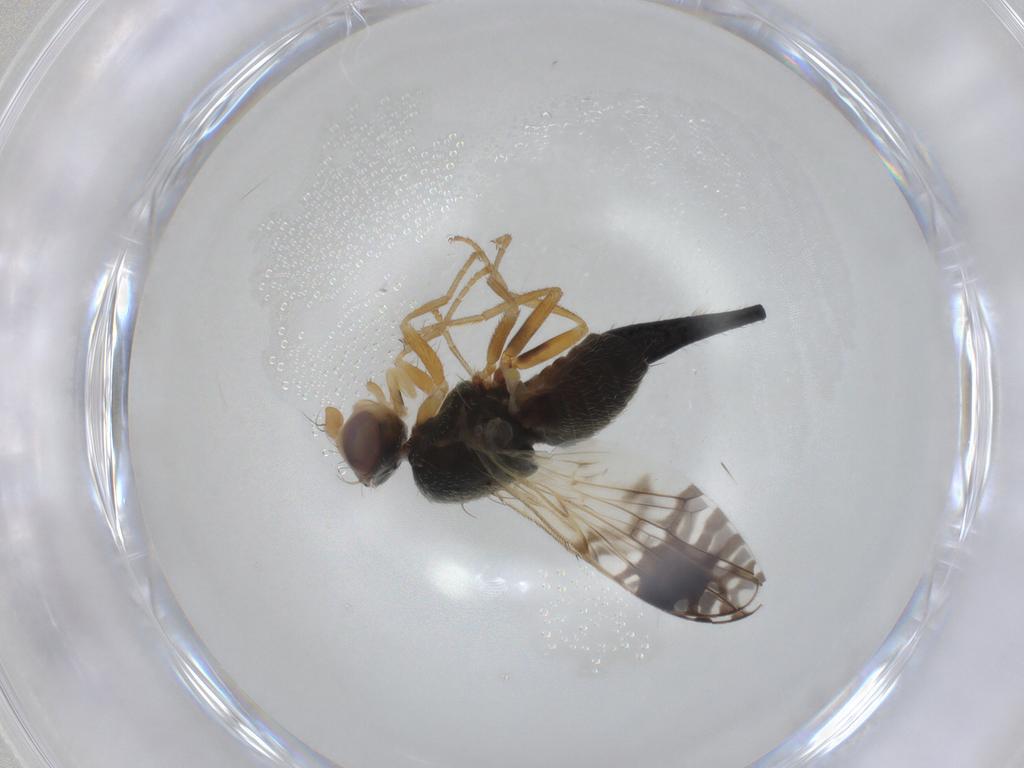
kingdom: Animalia
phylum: Arthropoda
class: Insecta
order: Diptera
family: Tephritidae
